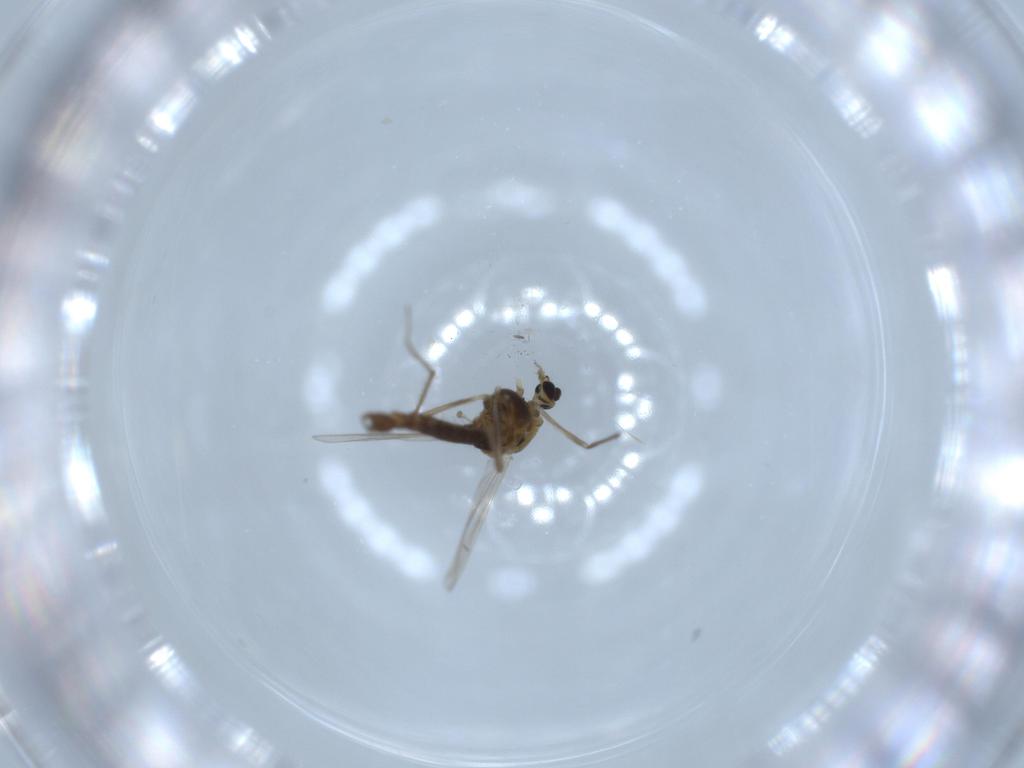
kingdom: Animalia
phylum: Arthropoda
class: Insecta
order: Diptera
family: Chironomidae
